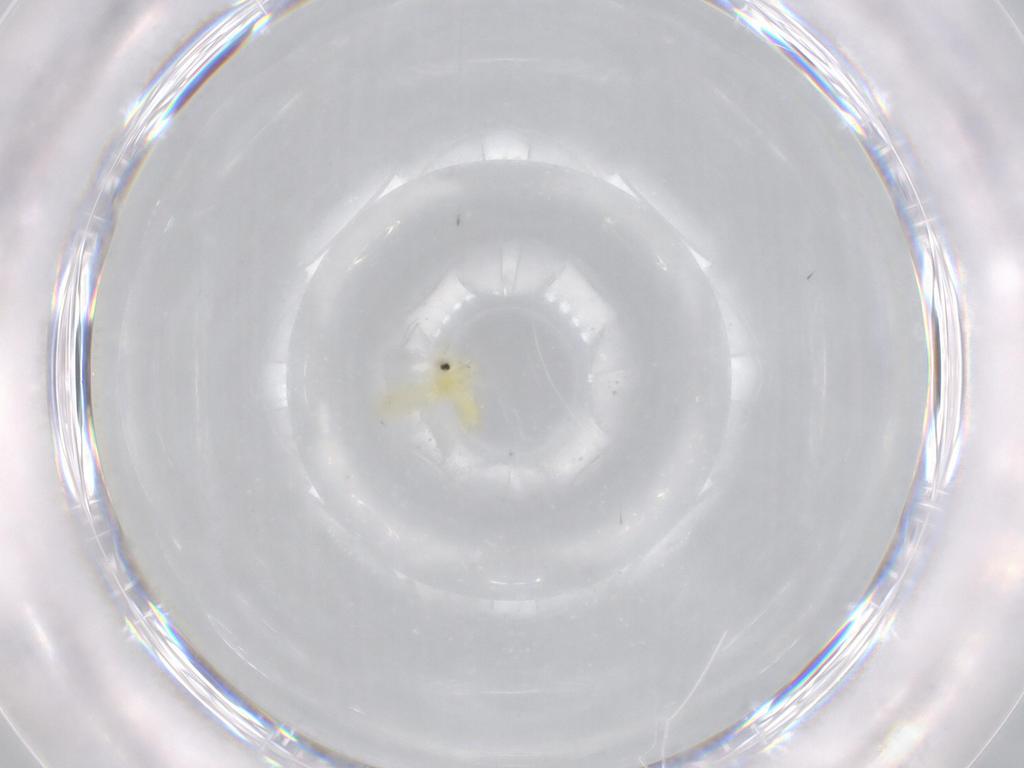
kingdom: Animalia
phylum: Arthropoda
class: Insecta
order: Hemiptera
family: Aleyrodidae
